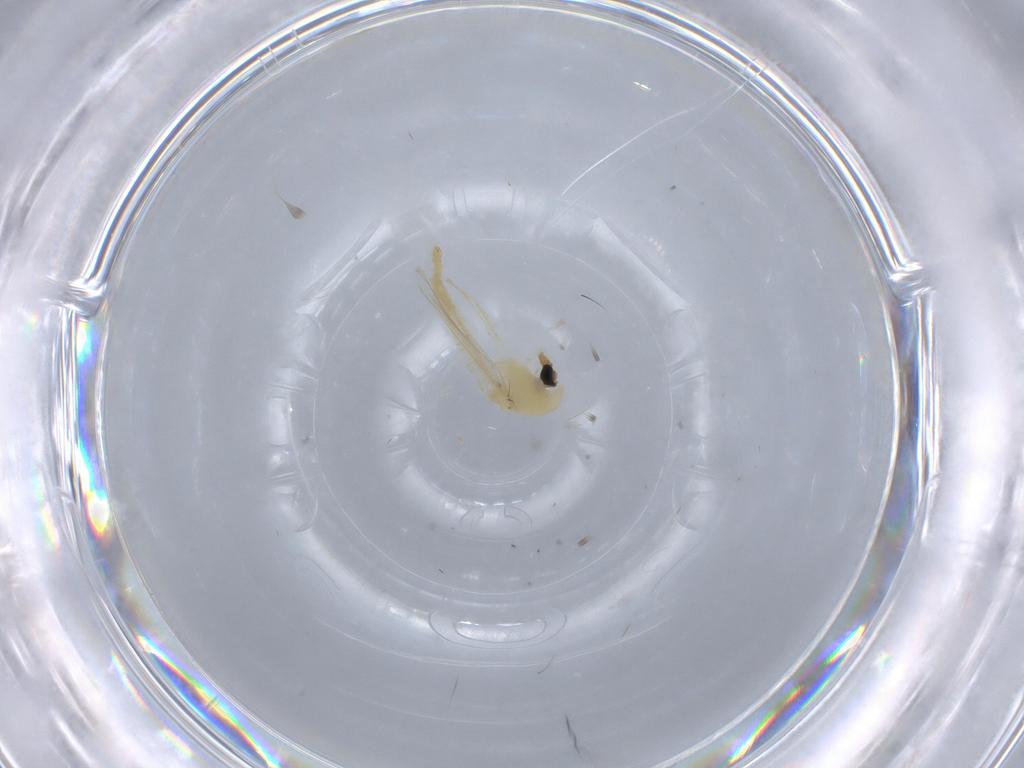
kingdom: Animalia
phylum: Arthropoda
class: Insecta
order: Diptera
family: Chironomidae
